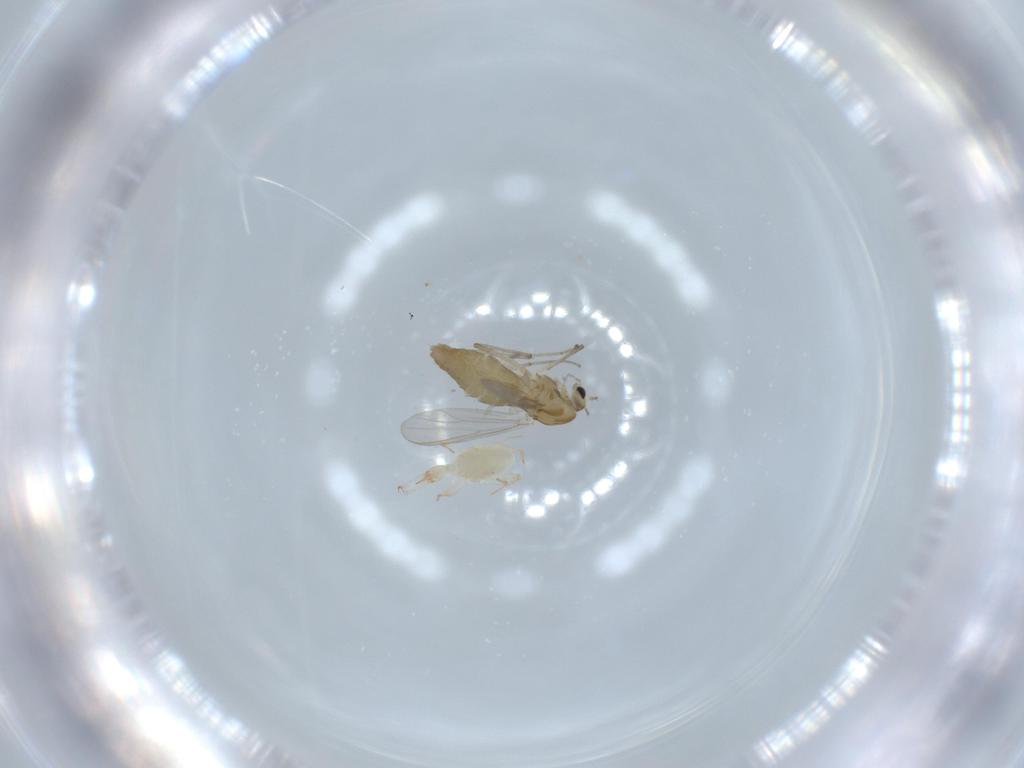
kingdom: Animalia
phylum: Arthropoda
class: Insecta
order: Diptera
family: Chironomidae
